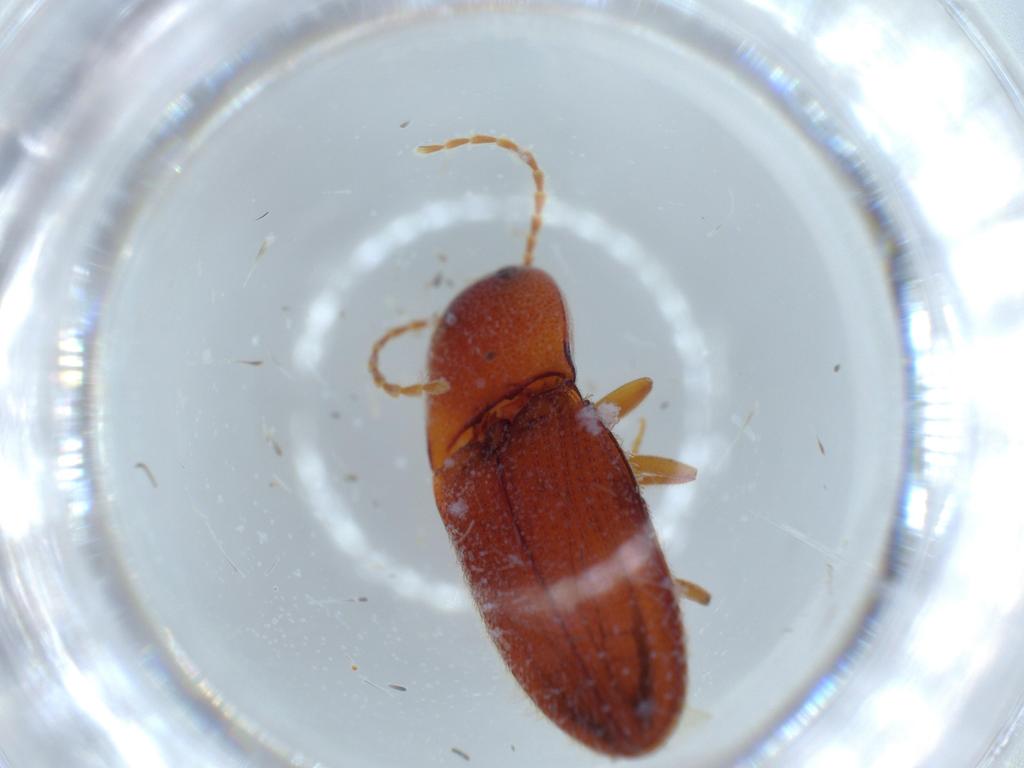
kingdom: Animalia
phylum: Arthropoda
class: Insecta
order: Coleoptera
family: Elateridae
